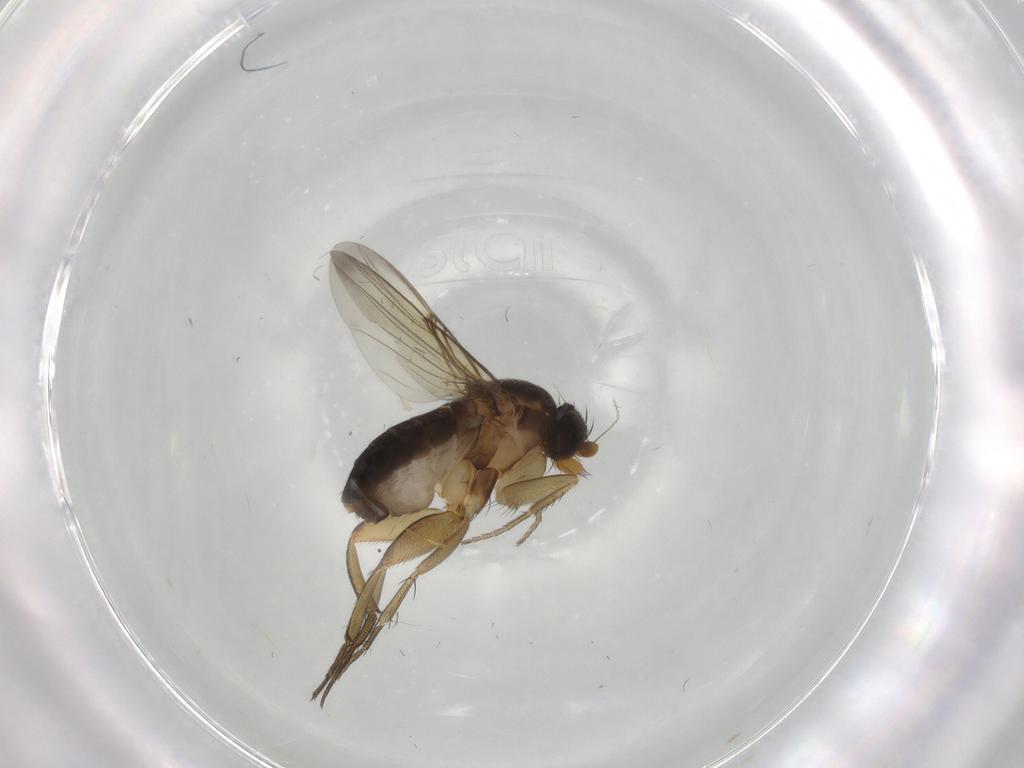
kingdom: Animalia
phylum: Arthropoda
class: Insecta
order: Diptera
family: Phoridae
